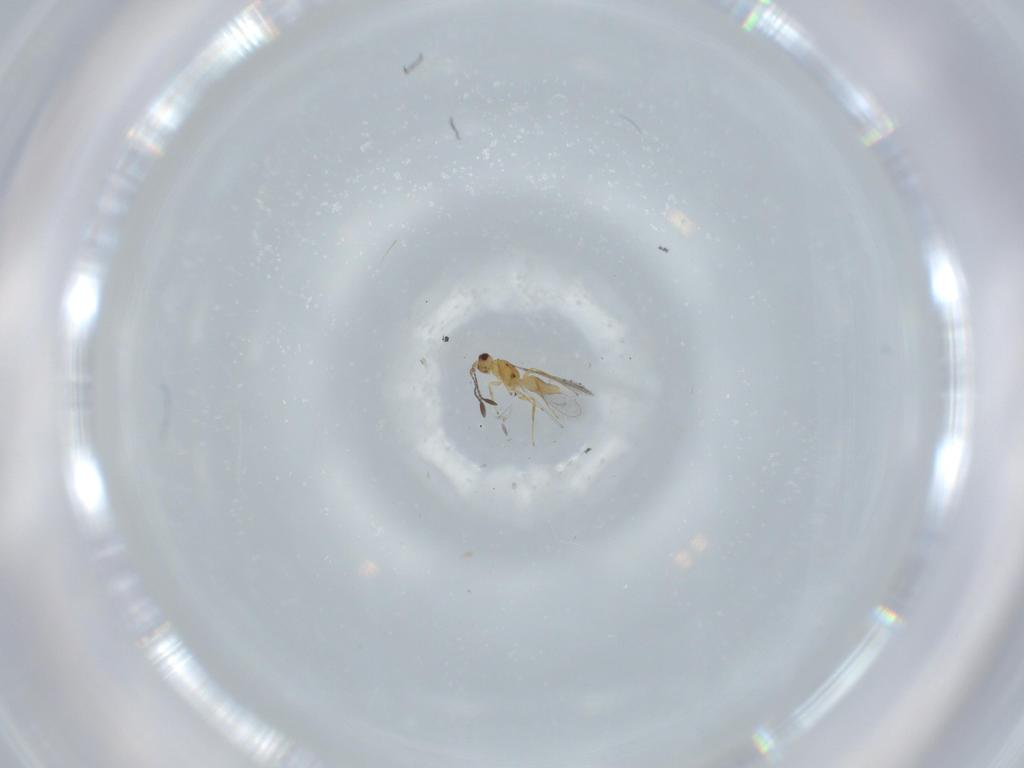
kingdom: Animalia
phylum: Arthropoda
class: Insecta
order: Hymenoptera
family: Mymaridae
